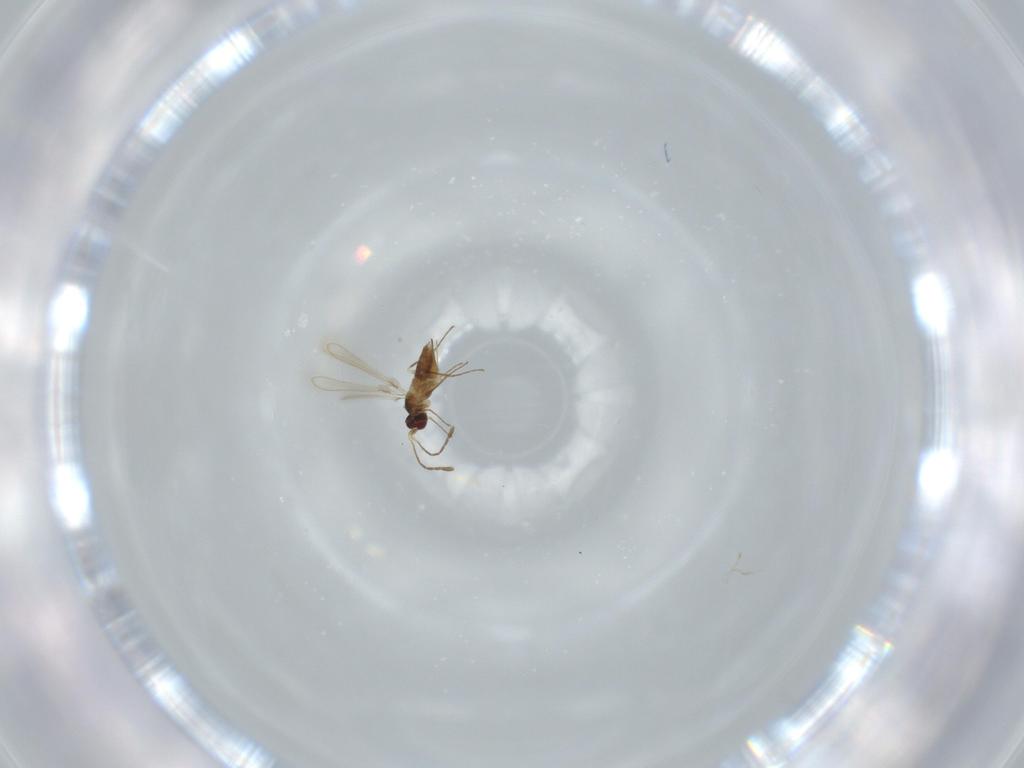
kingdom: Animalia
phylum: Arthropoda
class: Insecta
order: Hymenoptera
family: Mymaridae
